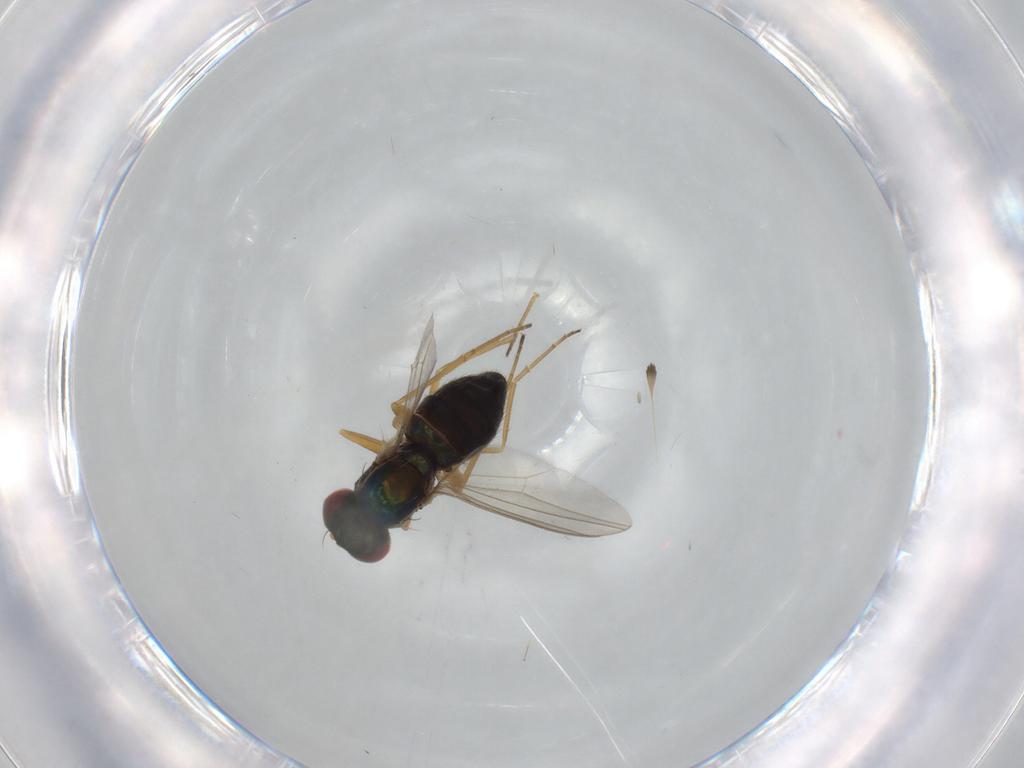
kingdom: Animalia
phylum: Arthropoda
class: Insecta
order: Diptera
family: Dolichopodidae
